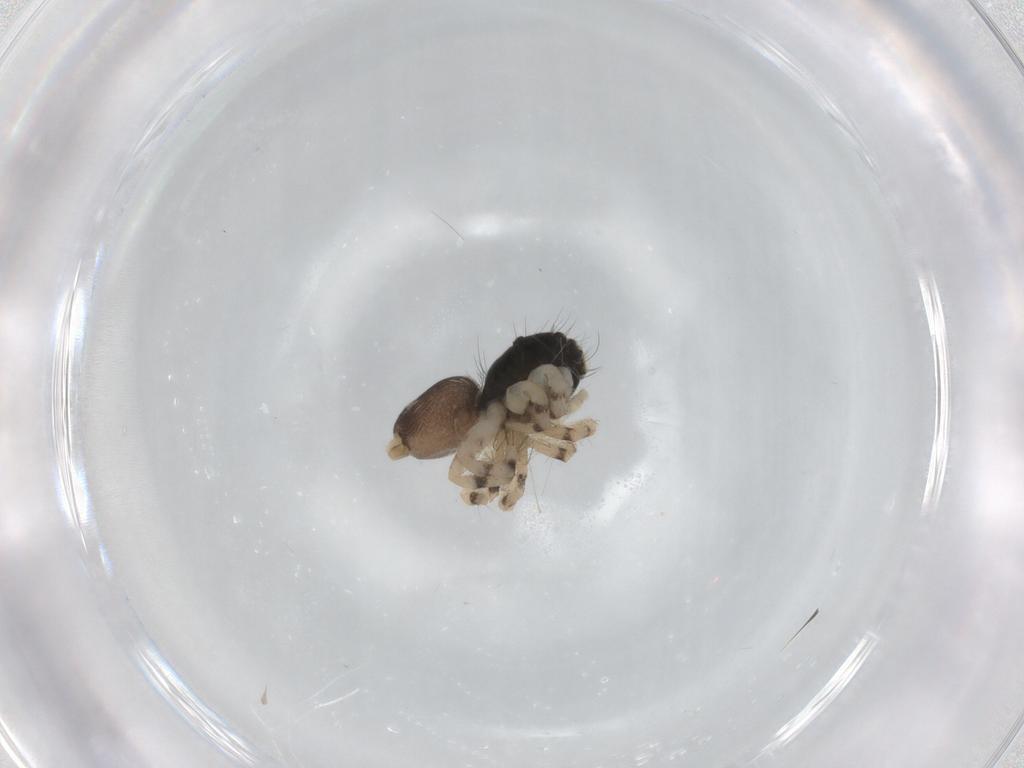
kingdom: Animalia
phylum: Arthropoda
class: Arachnida
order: Araneae
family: Salticidae
